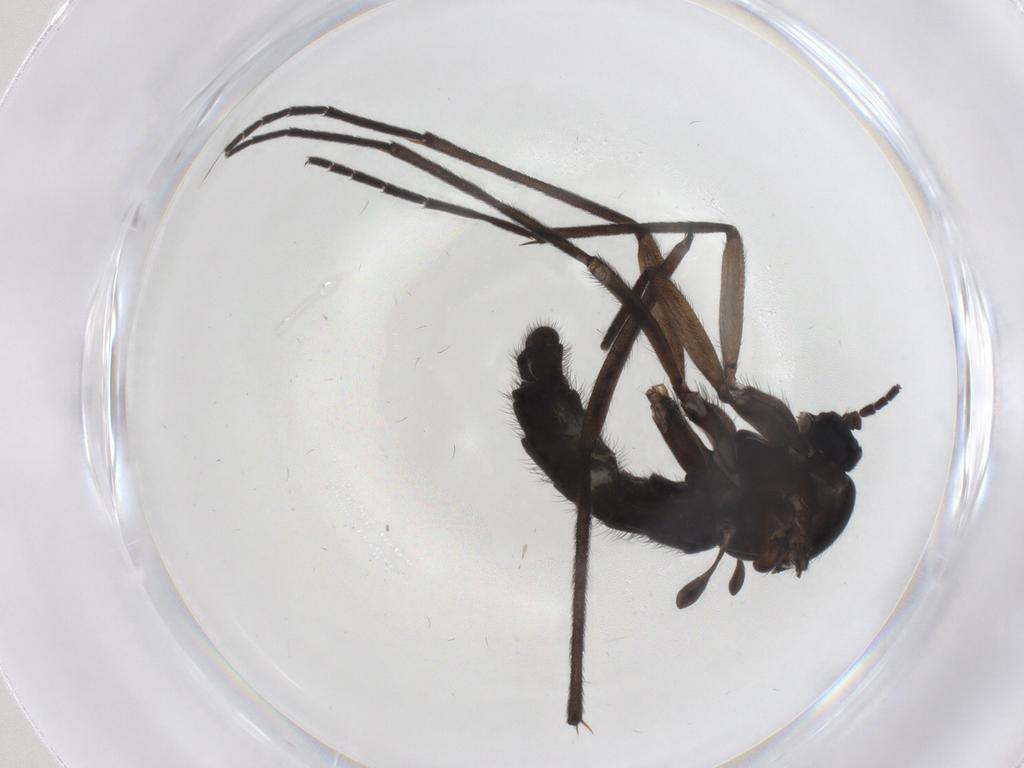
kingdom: Animalia
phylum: Arthropoda
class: Insecta
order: Diptera
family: Sciaridae
